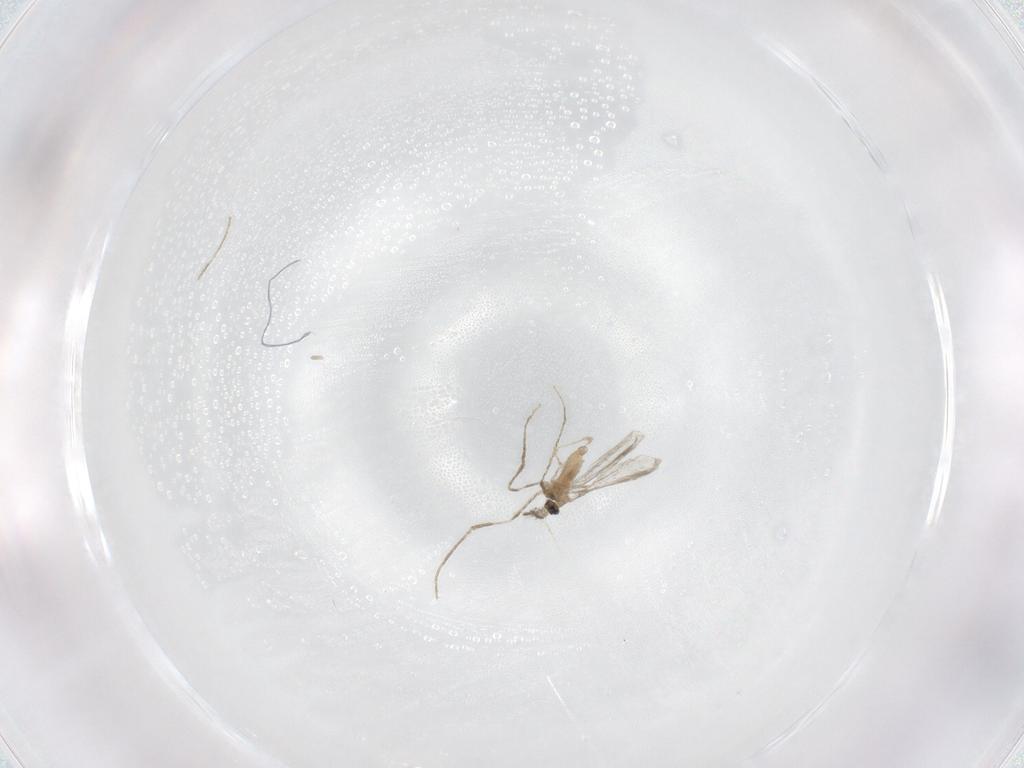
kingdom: Animalia
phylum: Arthropoda
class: Insecta
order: Diptera
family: Cecidomyiidae
